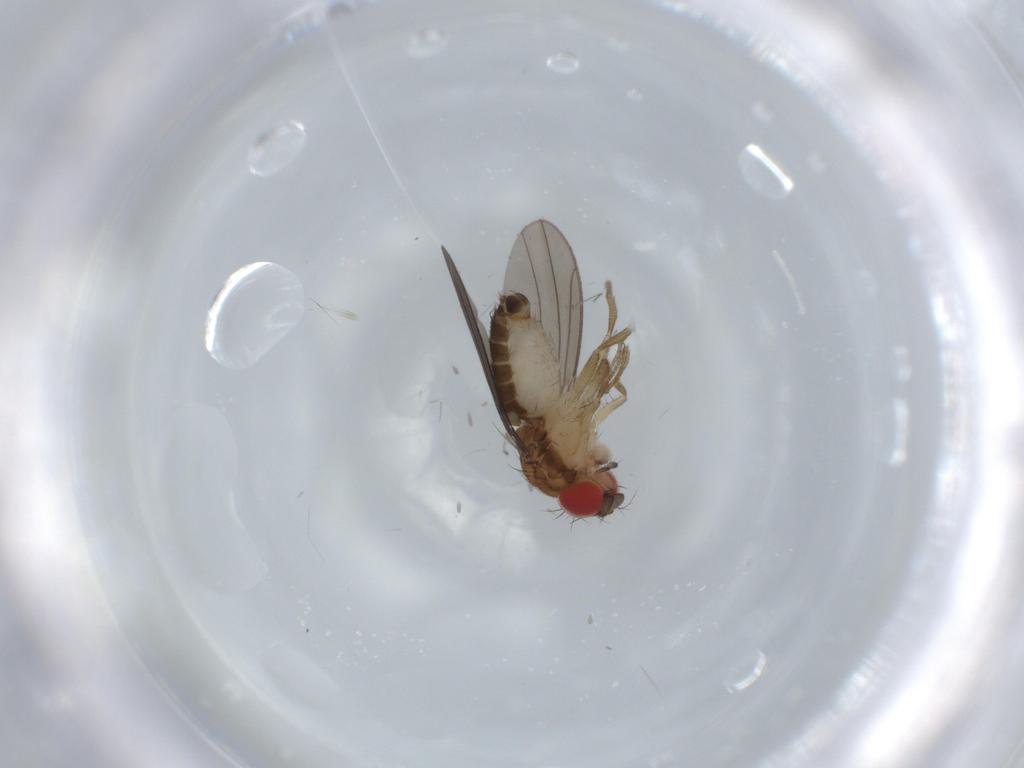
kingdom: Animalia
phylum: Arthropoda
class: Insecta
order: Diptera
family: Drosophilidae
